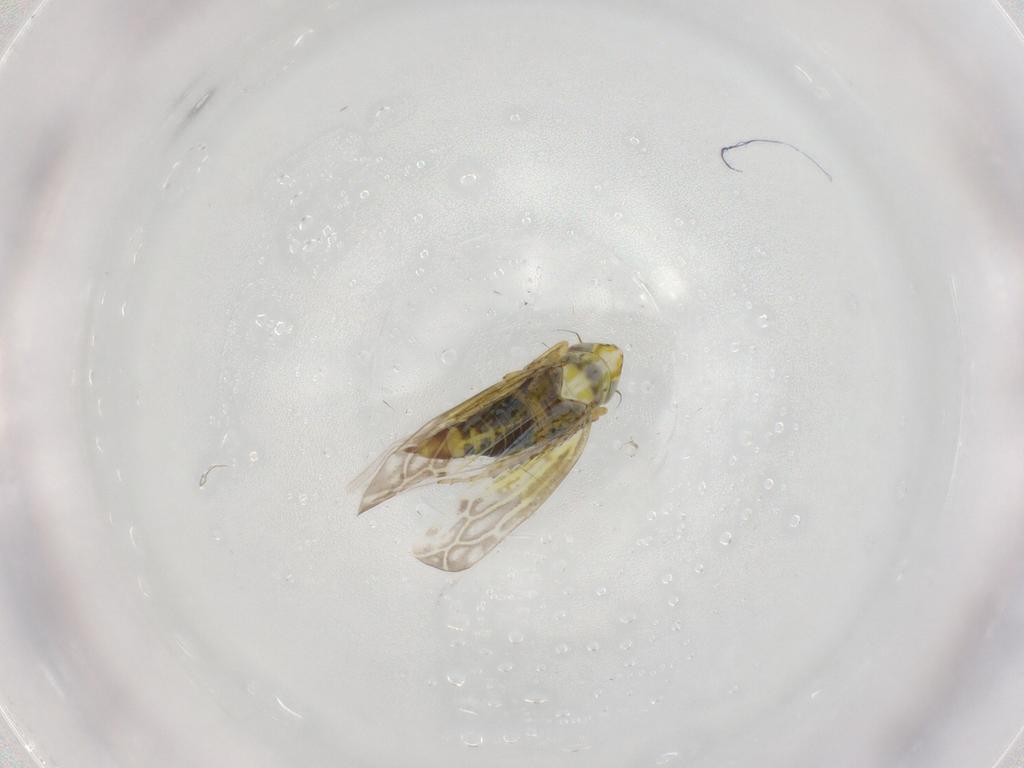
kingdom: Animalia
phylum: Arthropoda
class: Insecta
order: Hemiptera
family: Cicadellidae
